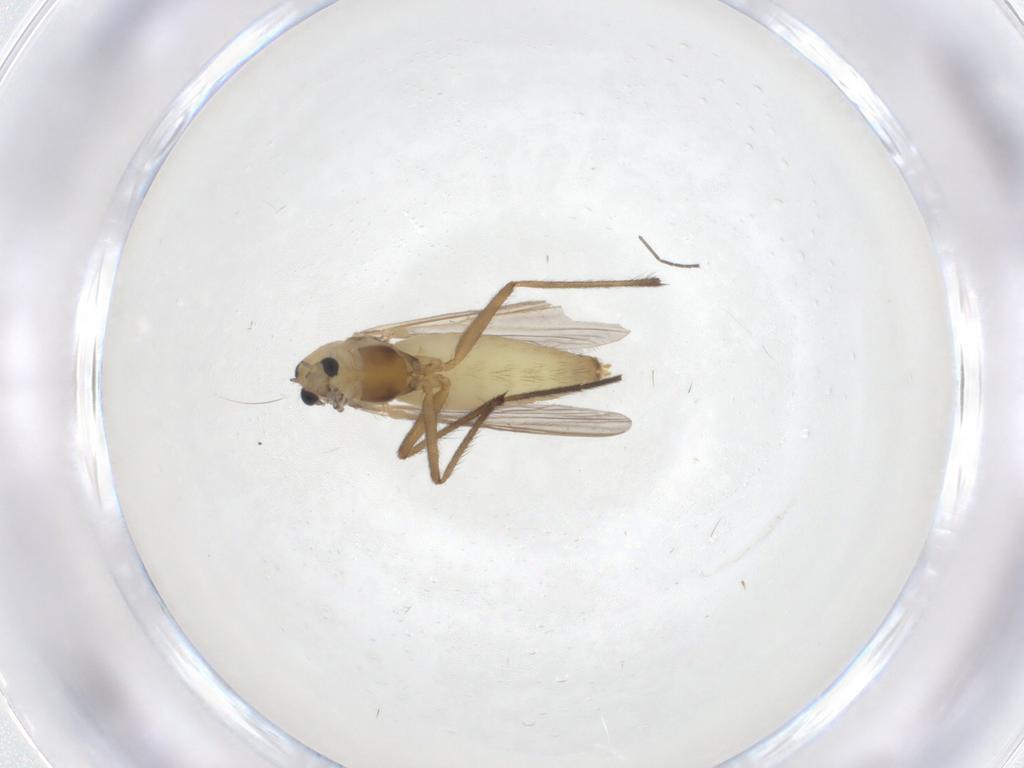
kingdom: Animalia
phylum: Arthropoda
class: Insecta
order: Diptera
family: Chironomidae
